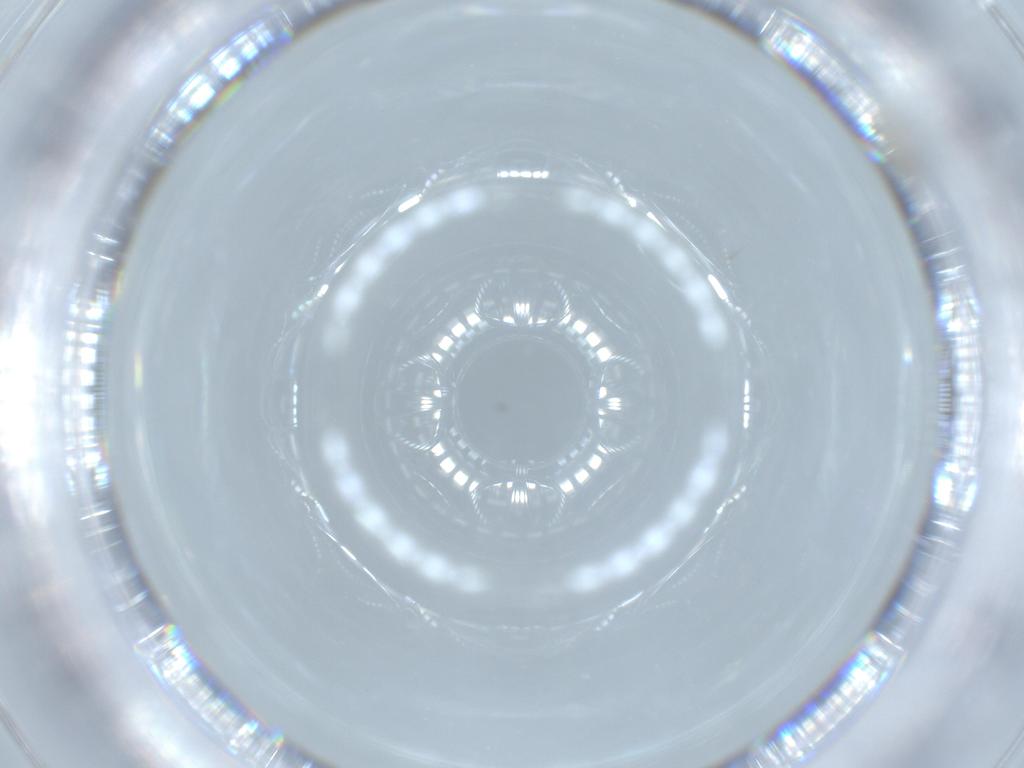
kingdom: Animalia
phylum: Arthropoda
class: Insecta
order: Diptera
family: Cecidomyiidae
